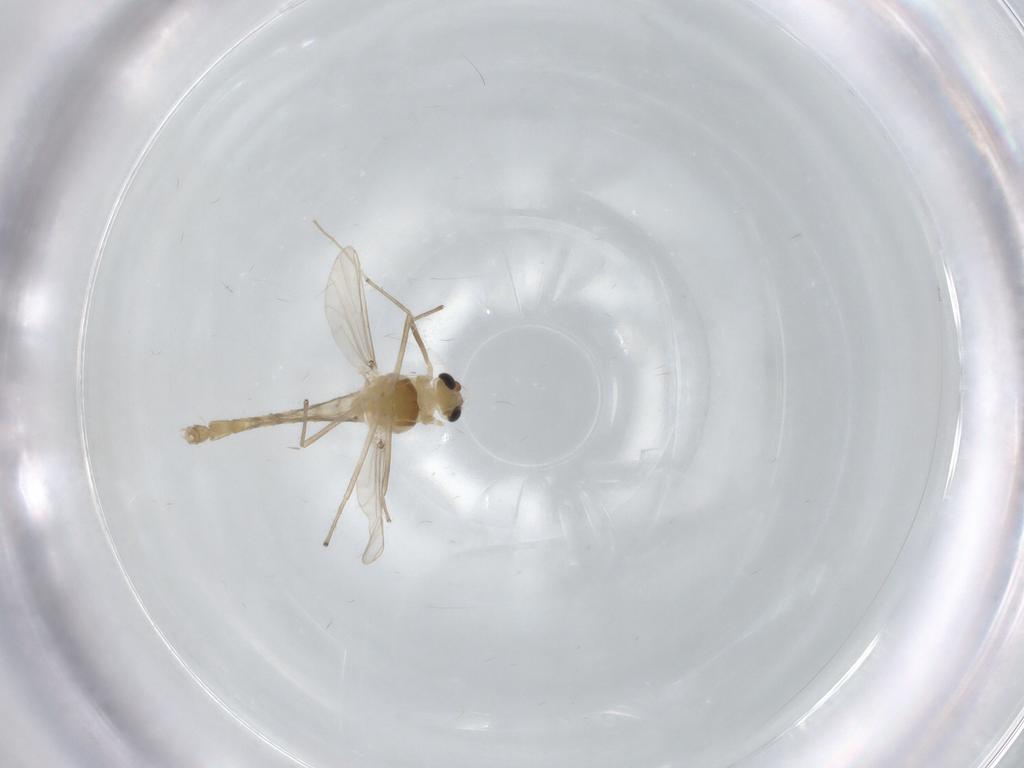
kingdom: Animalia
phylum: Arthropoda
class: Insecta
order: Diptera
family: Chironomidae
